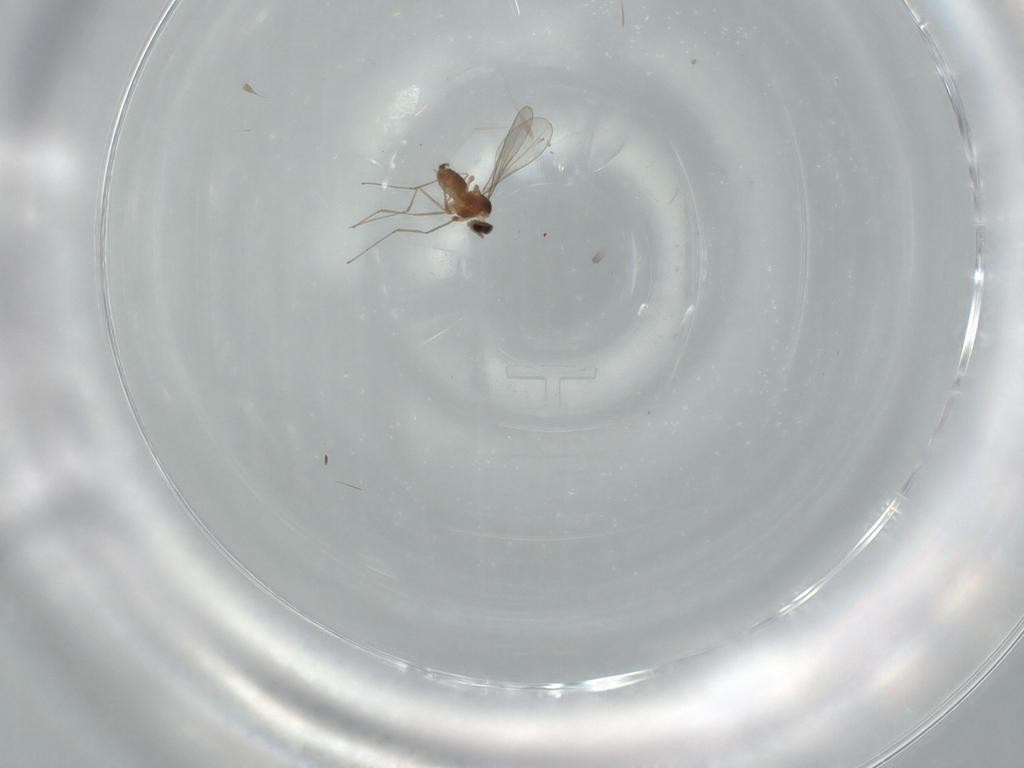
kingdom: Animalia
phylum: Arthropoda
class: Insecta
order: Diptera
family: Cecidomyiidae
